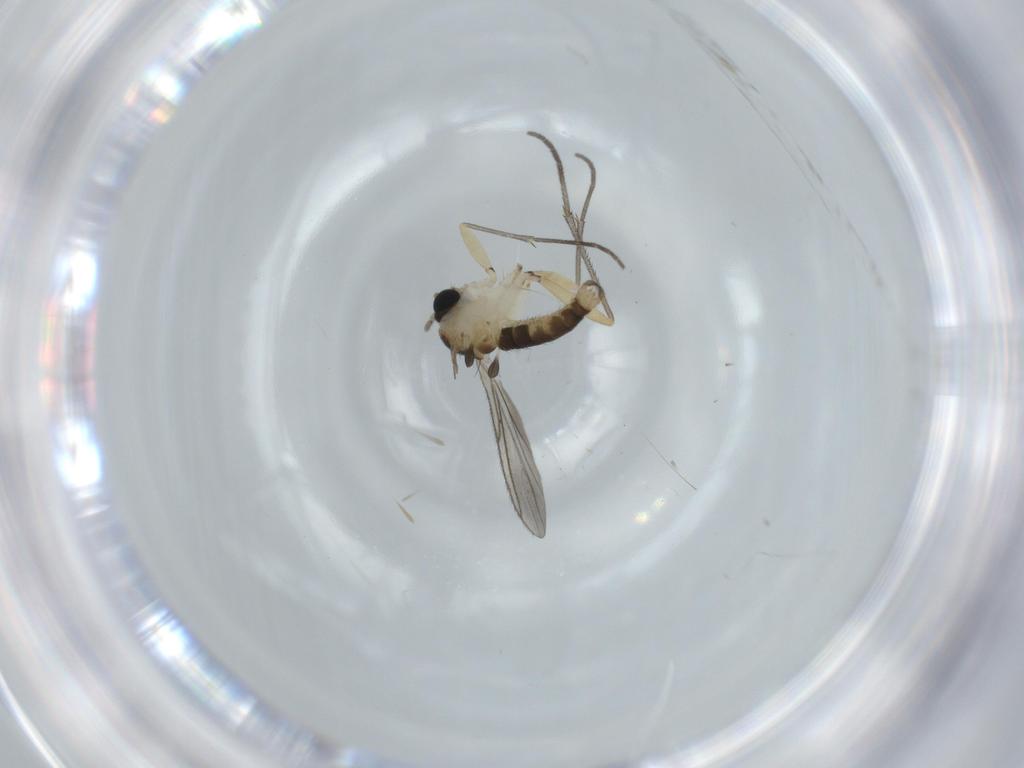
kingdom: Animalia
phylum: Arthropoda
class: Insecta
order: Diptera
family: Sciaridae
